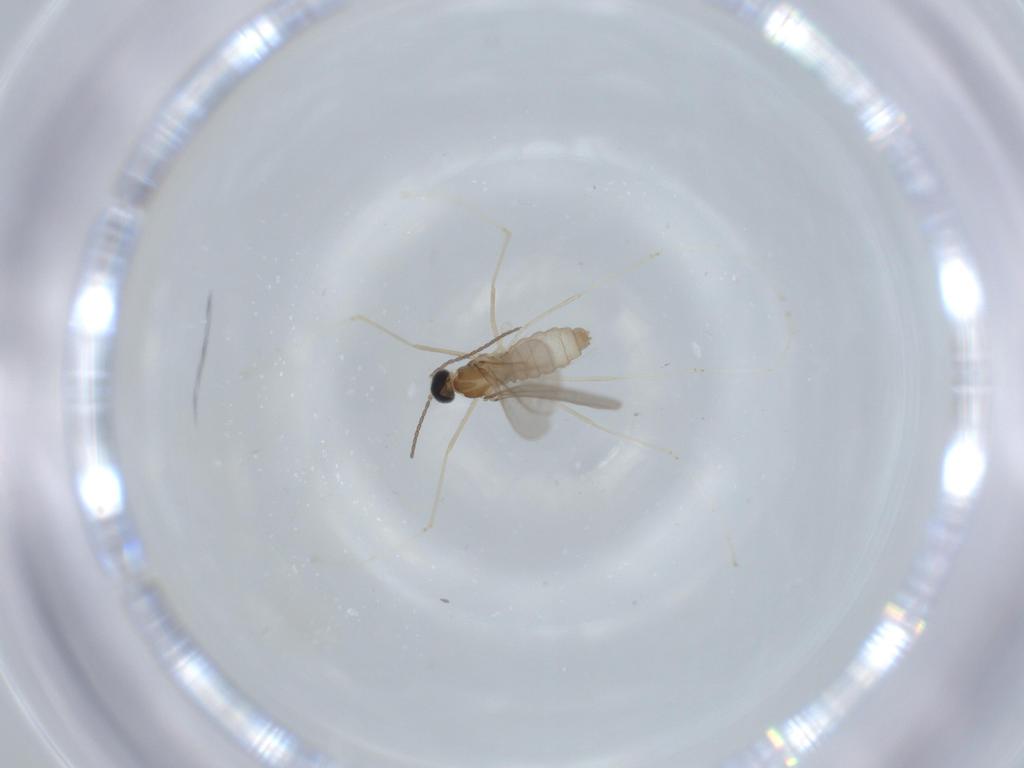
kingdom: Animalia
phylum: Arthropoda
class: Insecta
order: Diptera
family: Cecidomyiidae
